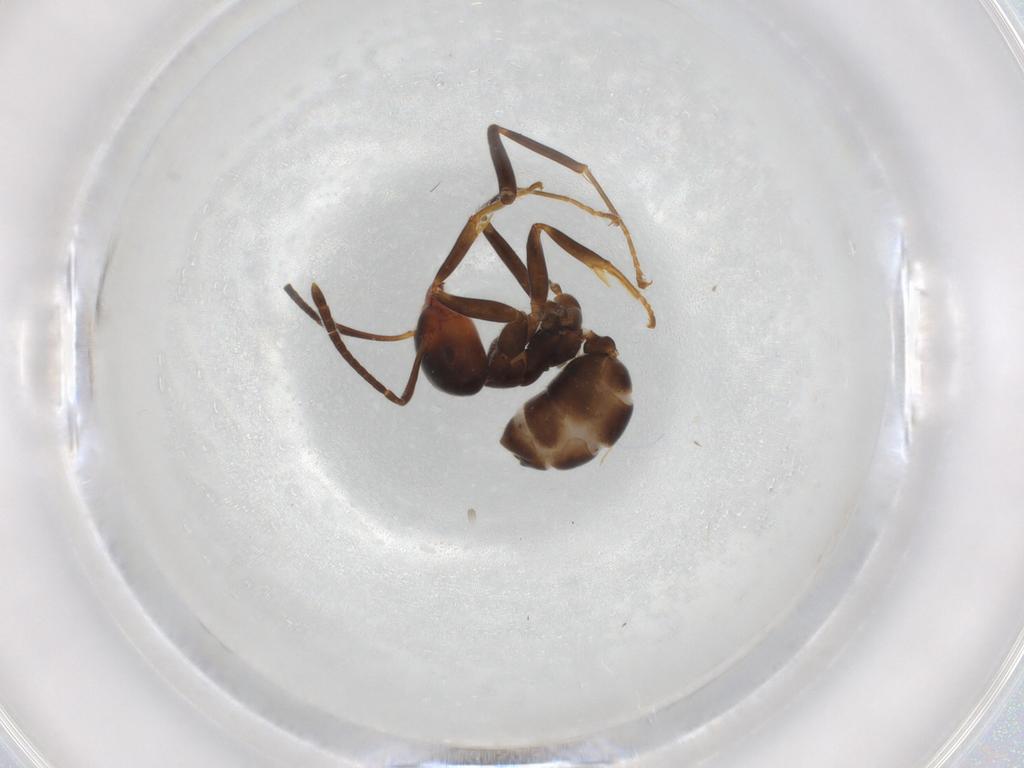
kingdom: Animalia
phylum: Arthropoda
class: Insecta
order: Hymenoptera
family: Formicidae
